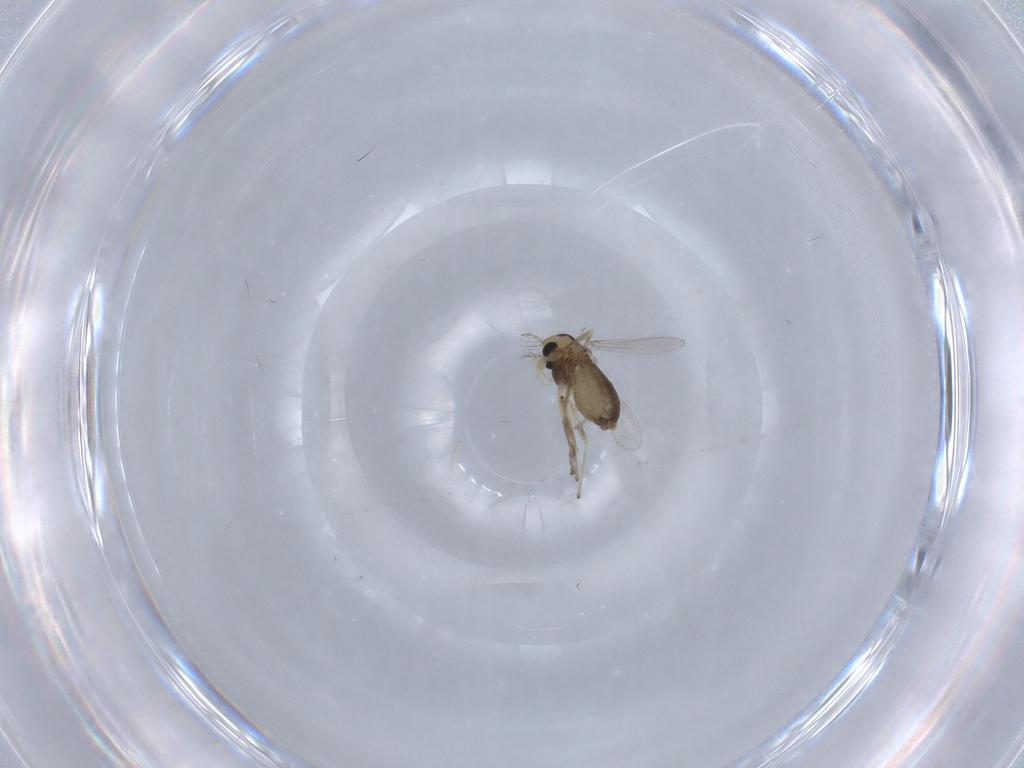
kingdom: Animalia
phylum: Arthropoda
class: Insecta
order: Diptera
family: Chironomidae
